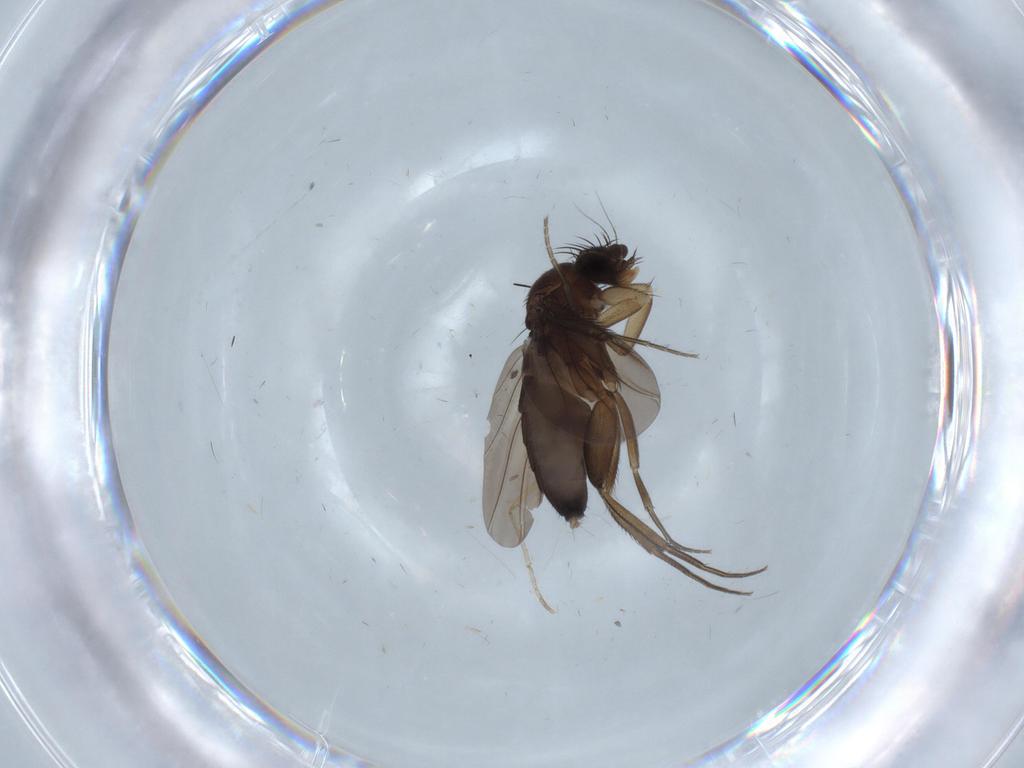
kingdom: Animalia
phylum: Arthropoda
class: Insecta
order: Diptera
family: Phoridae
